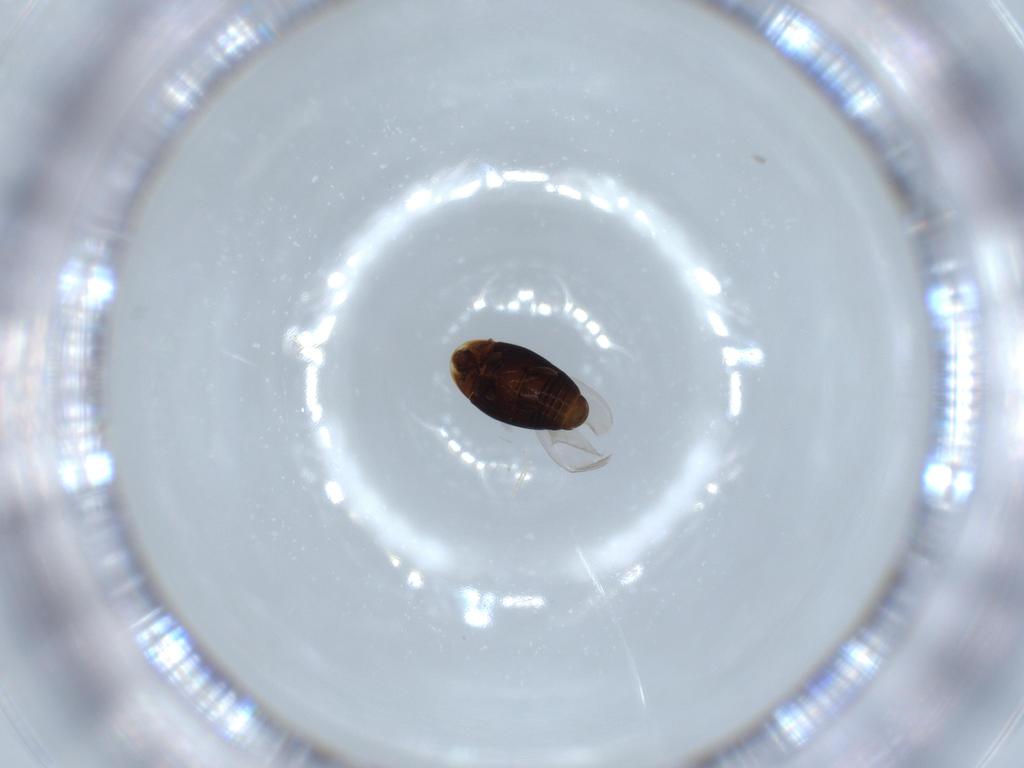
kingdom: Animalia
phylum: Arthropoda
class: Insecta
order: Coleoptera
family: Corylophidae
